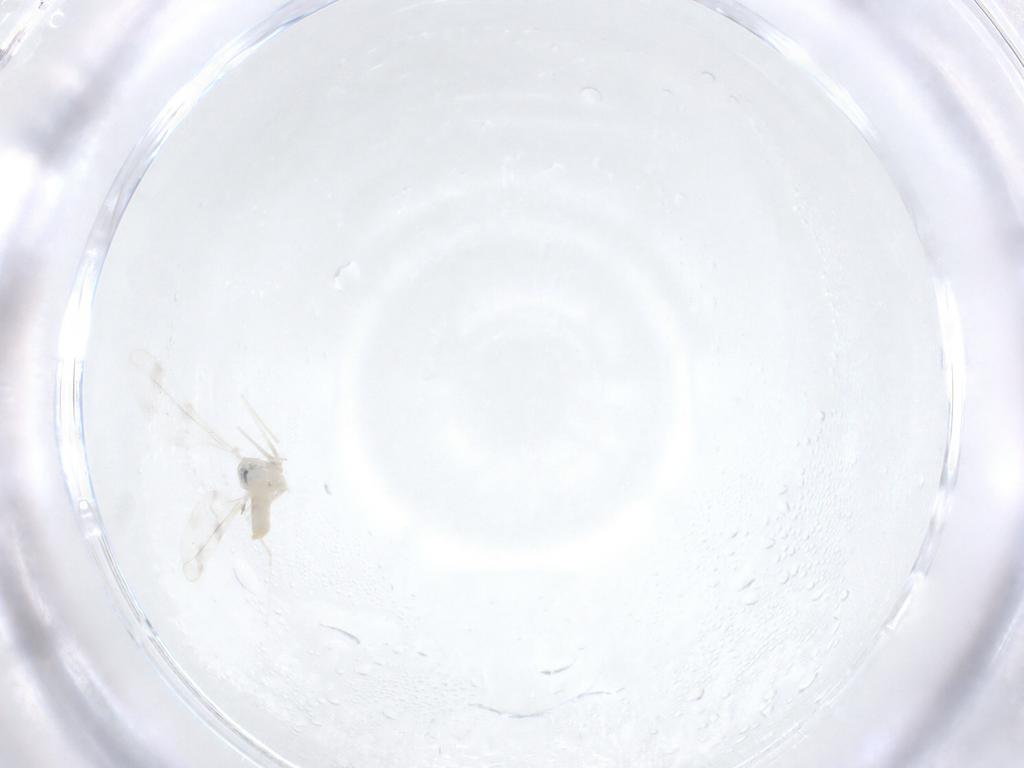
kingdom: Animalia
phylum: Arthropoda
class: Insecta
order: Diptera
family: Cecidomyiidae
